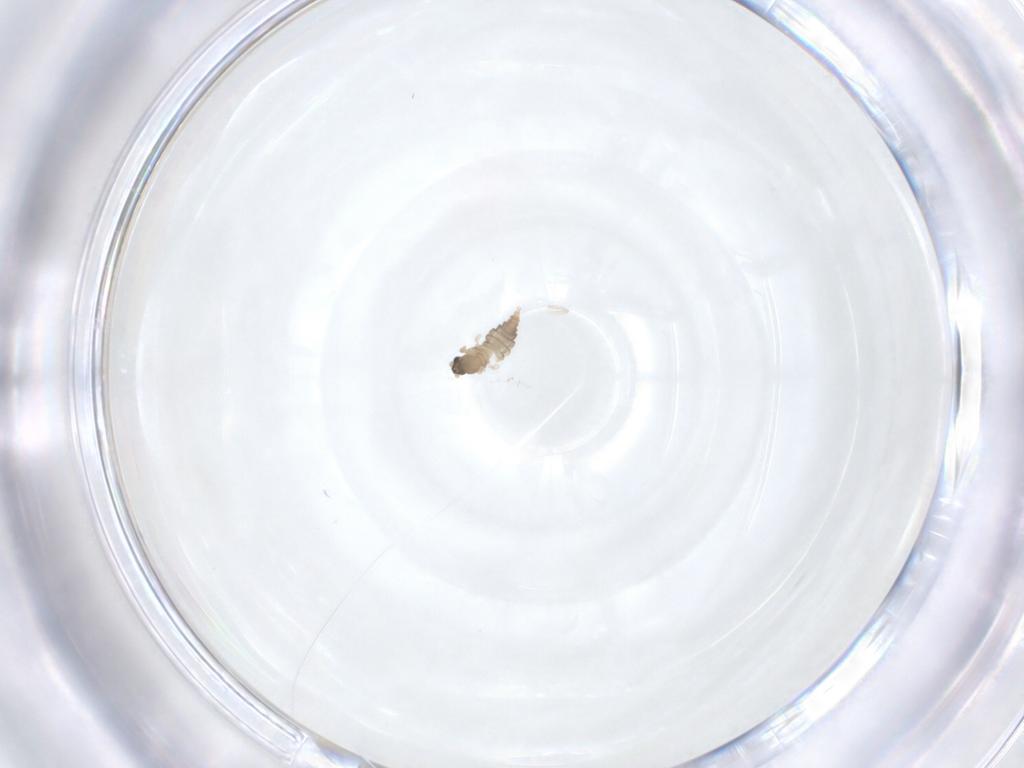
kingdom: Animalia
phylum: Arthropoda
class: Insecta
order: Diptera
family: Cecidomyiidae
